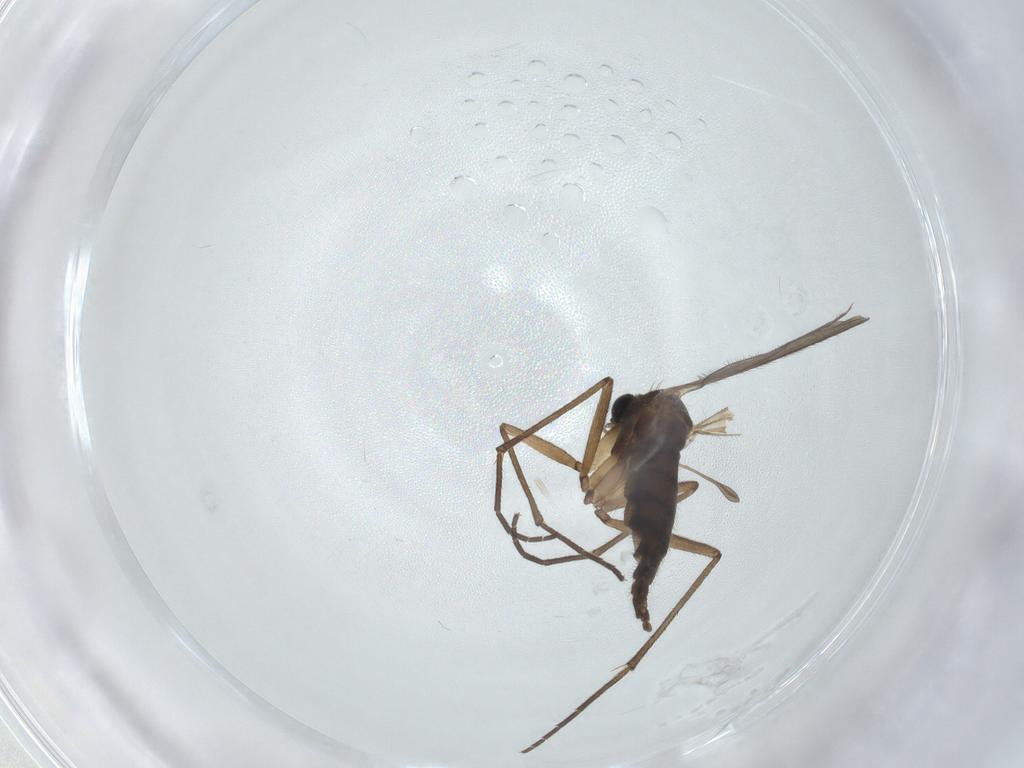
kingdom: Animalia
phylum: Arthropoda
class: Insecta
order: Diptera
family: Sciaridae
